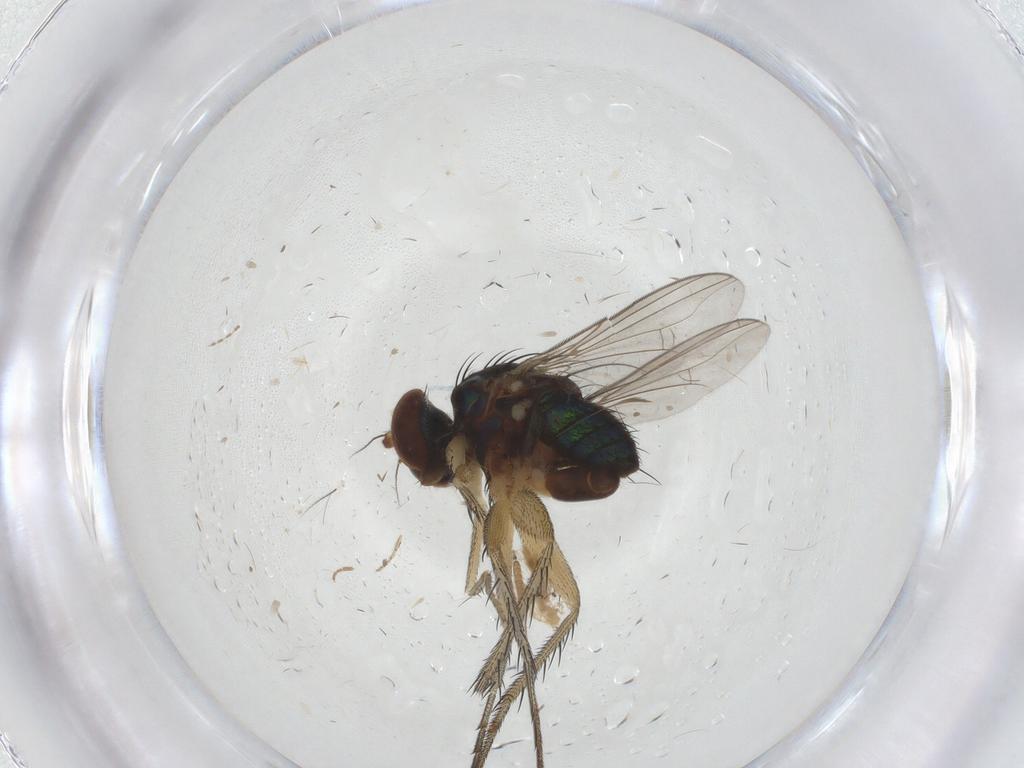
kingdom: Animalia
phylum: Arthropoda
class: Insecta
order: Diptera
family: Dolichopodidae
